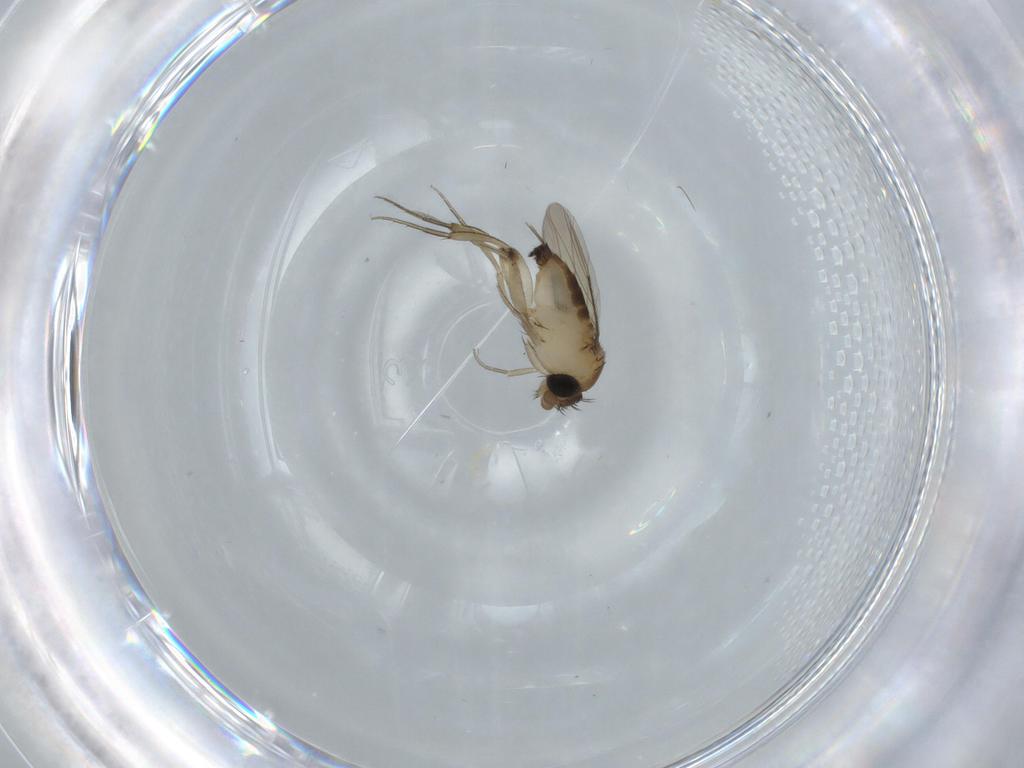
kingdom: Animalia
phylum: Arthropoda
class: Insecta
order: Diptera
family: Phoridae
